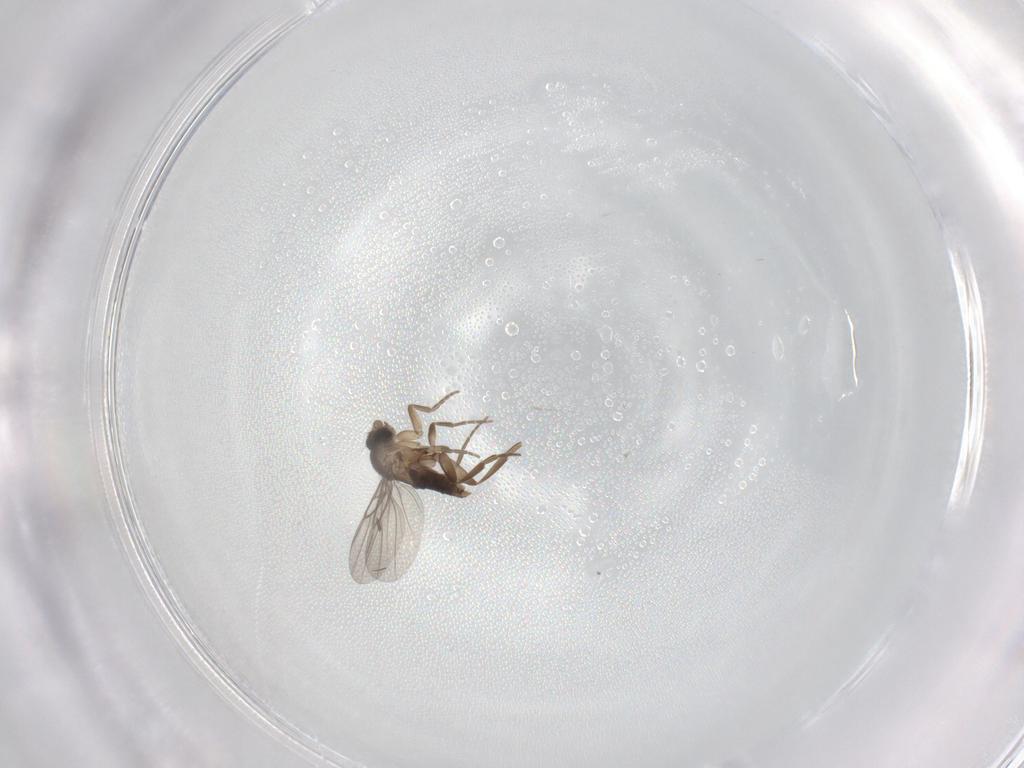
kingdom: Animalia
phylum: Arthropoda
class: Insecta
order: Diptera
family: Phoridae
